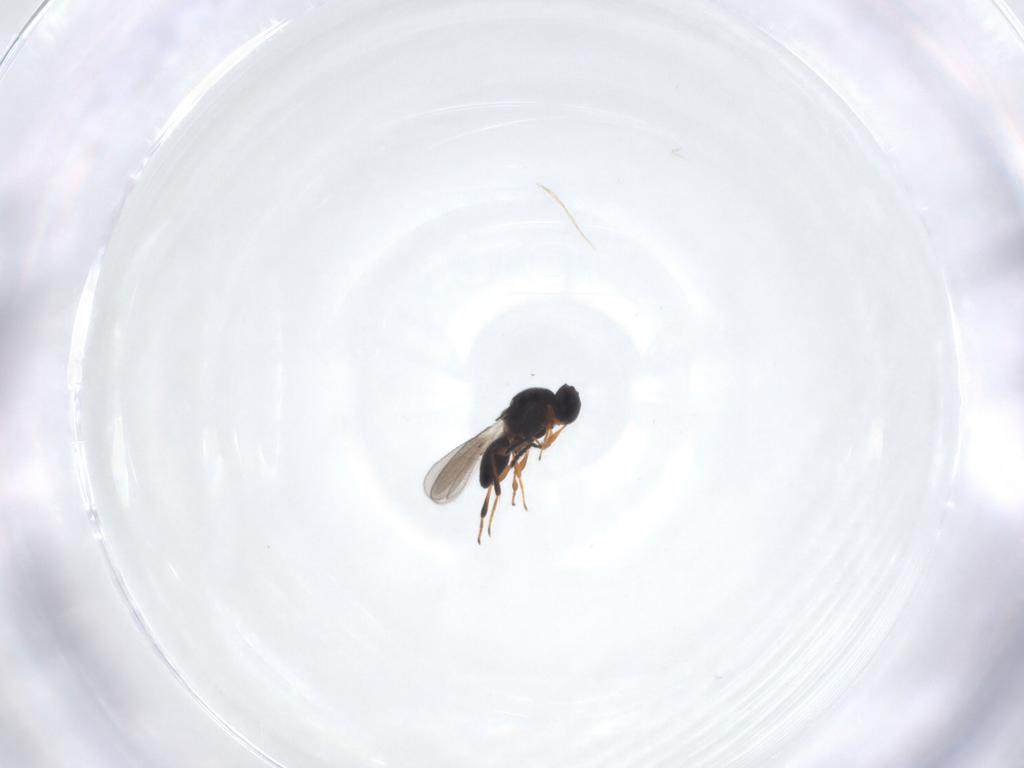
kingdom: Animalia
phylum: Arthropoda
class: Insecta
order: Hymenoptera
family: Platygastridae
